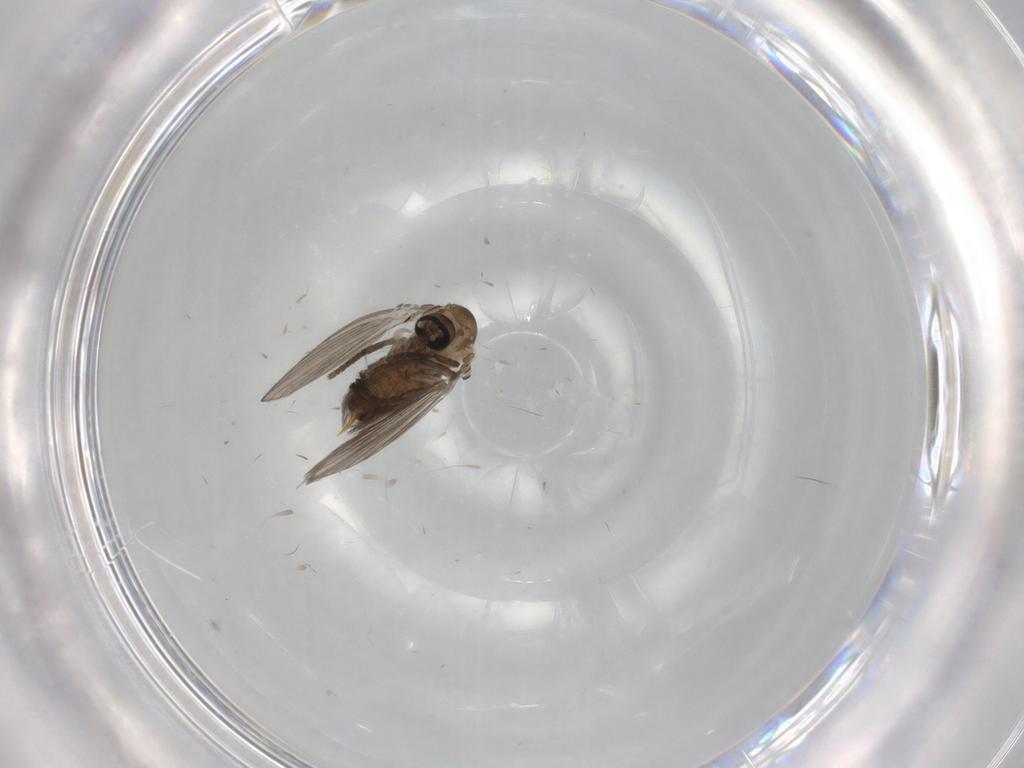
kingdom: Animalia
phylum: Arthropoda
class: Insecta
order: Diptera
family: Psychodidae
